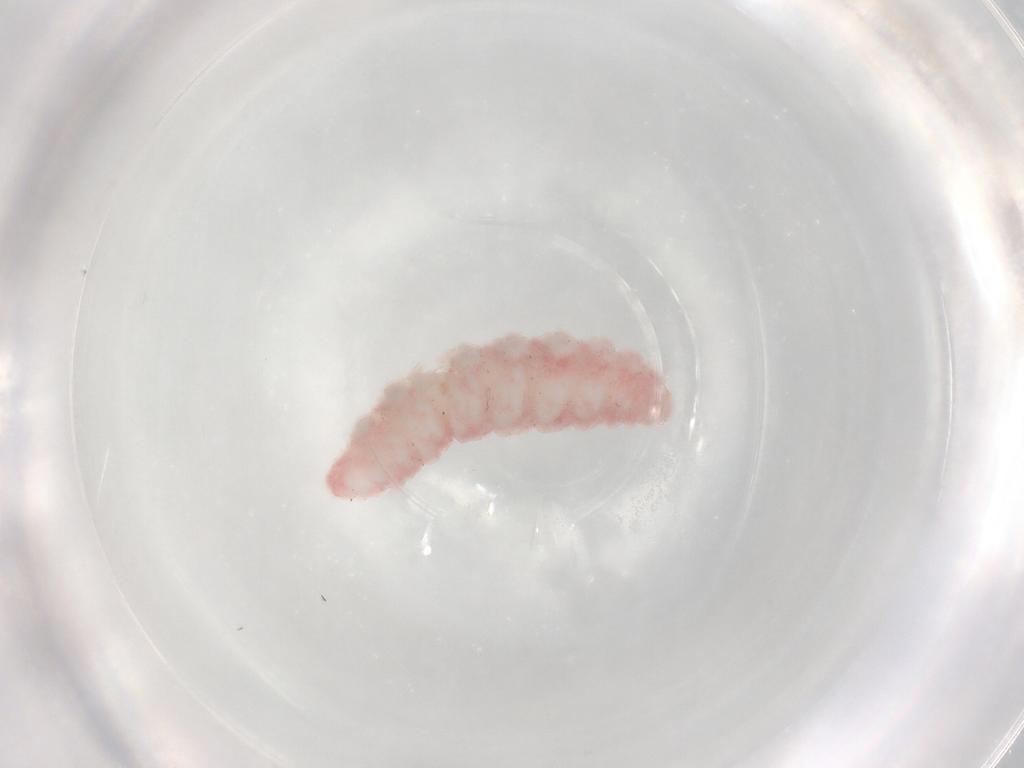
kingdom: Animalia
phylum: Arthropoda
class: Insecta
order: Diptera
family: Cecidomyiidae
